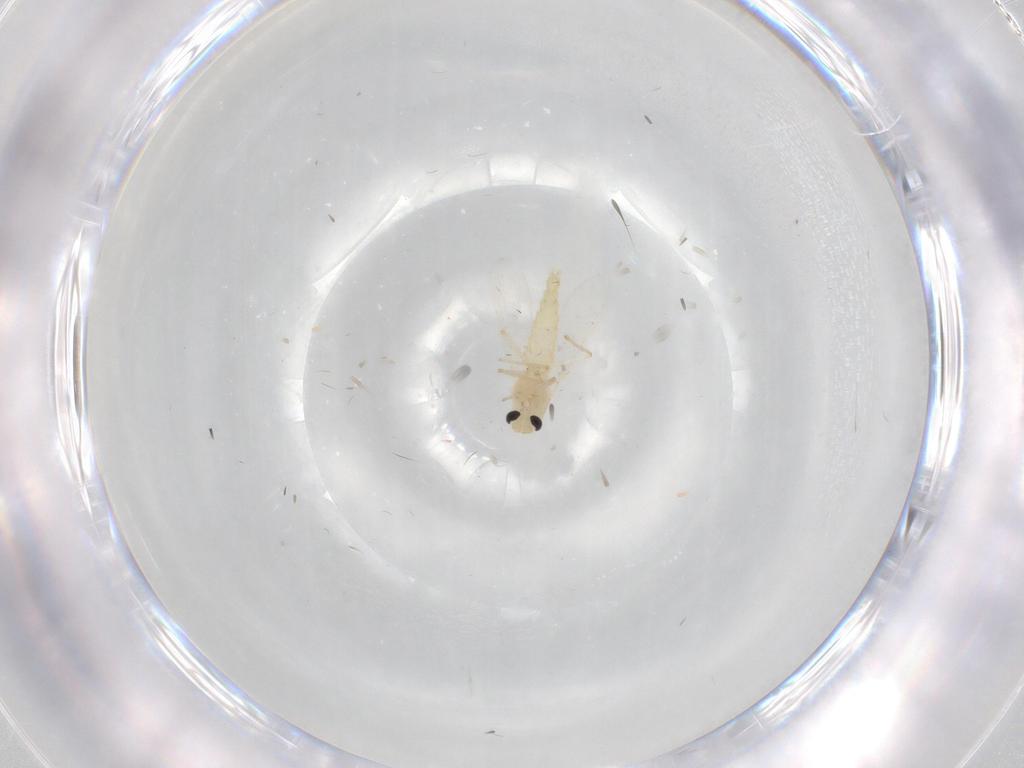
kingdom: Animalia
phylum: Arthropoda
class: Insecta
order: Diptera
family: Chironomidae
